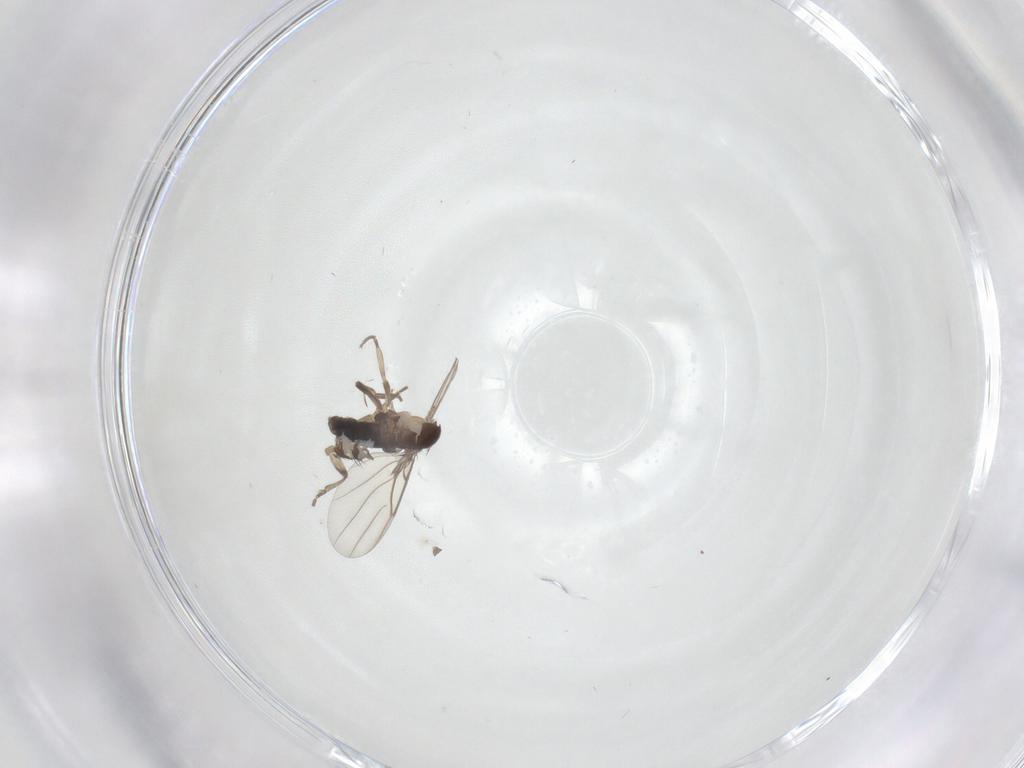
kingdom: Animalia
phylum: Arthropoda
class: Insecta
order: Diptera
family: Phoridae
